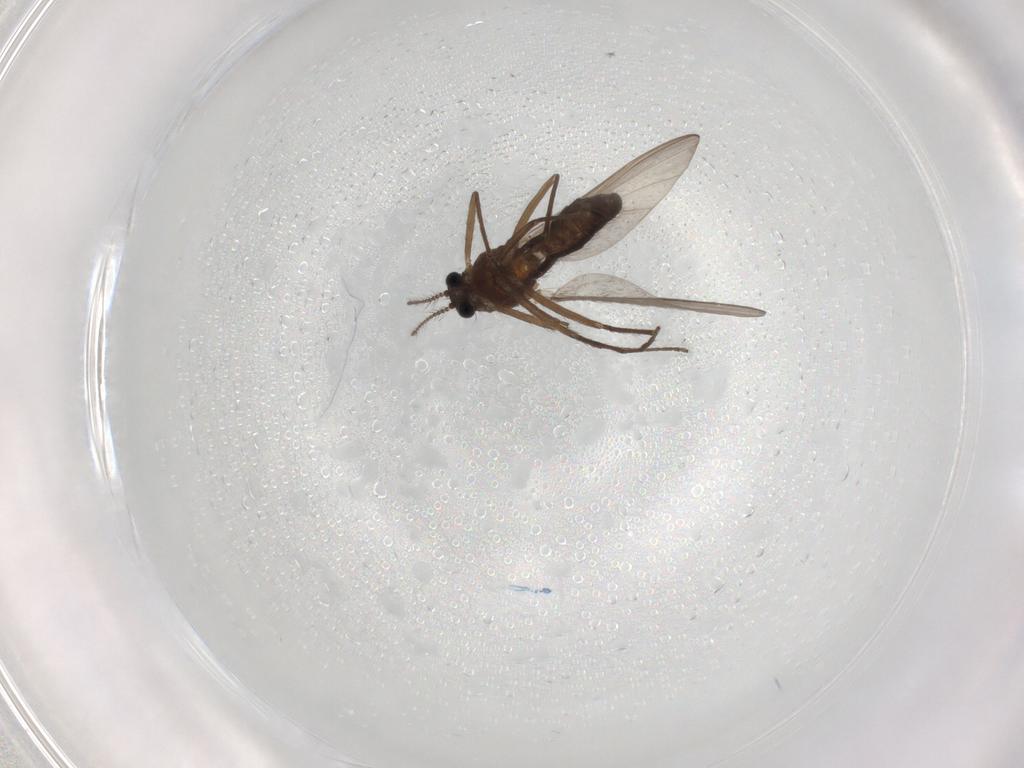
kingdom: Animalia
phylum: Arthropoda
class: Insecta
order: Diptera
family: Chironomidae
